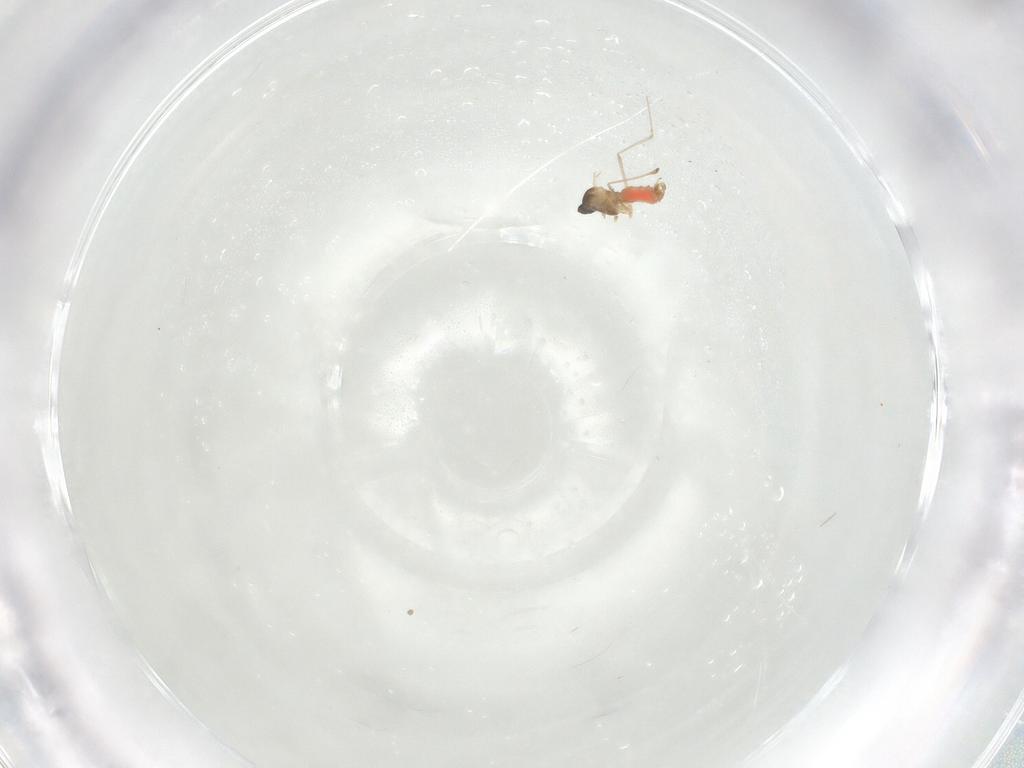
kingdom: Animalia
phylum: Arthropoda
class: Insecta
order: Diptera
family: Cecidomyiidae
